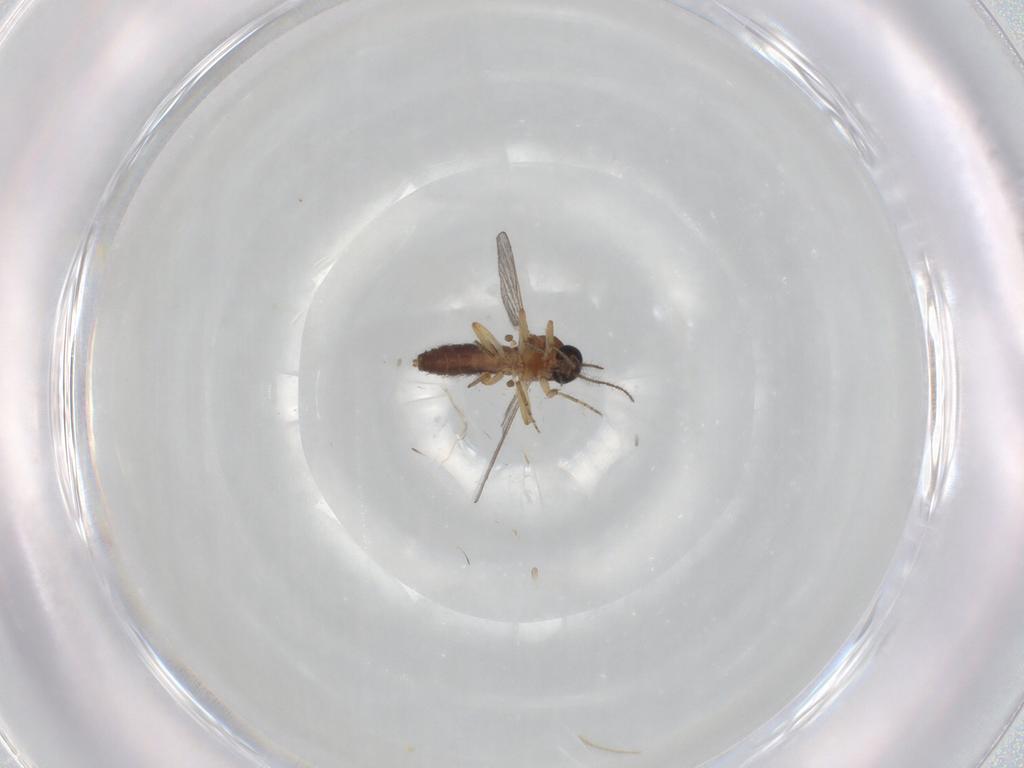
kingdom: Animalia
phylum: Arthropoda
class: Insecta
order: Diptera
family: Ceratopogonidae
